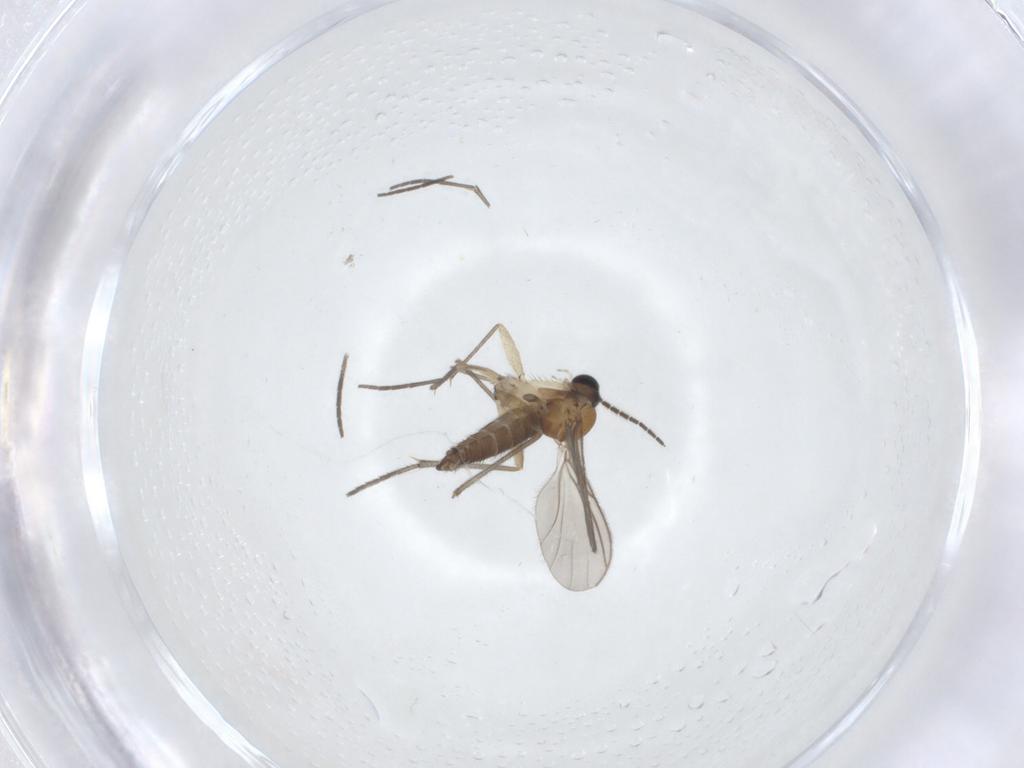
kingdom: Animalia
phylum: Arthropoda
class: Insecta
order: Diptera
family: Sciaridae
